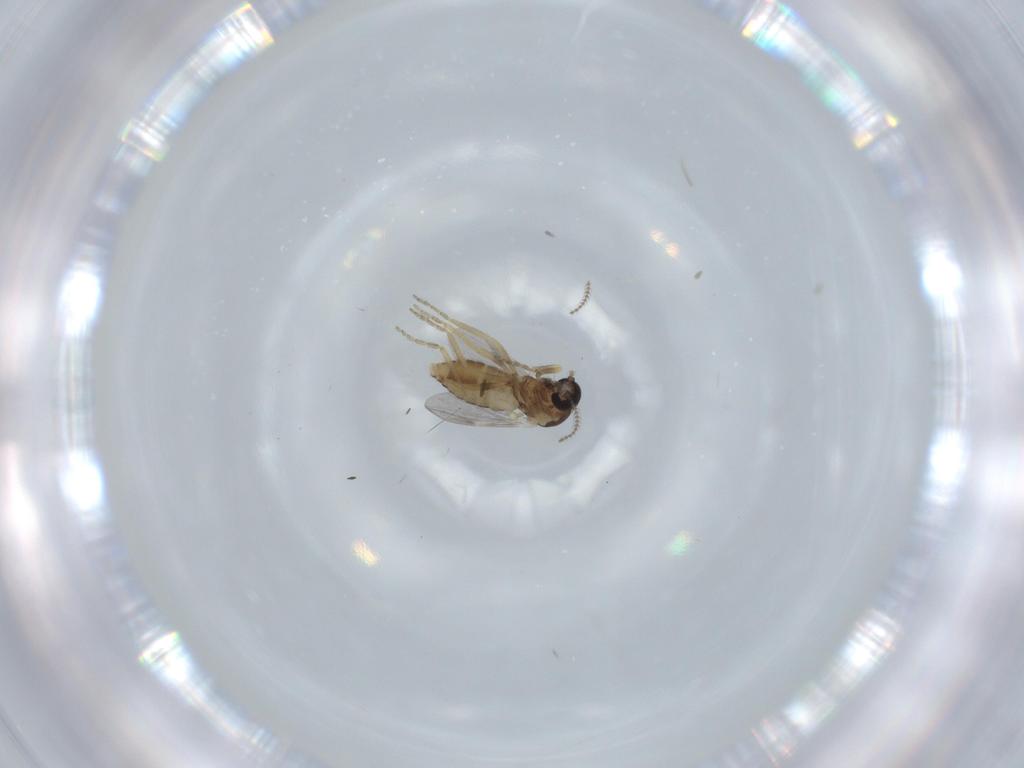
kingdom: Animalia
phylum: Arthropoda
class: Insecta
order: Diptera
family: Ceratopogonidae
